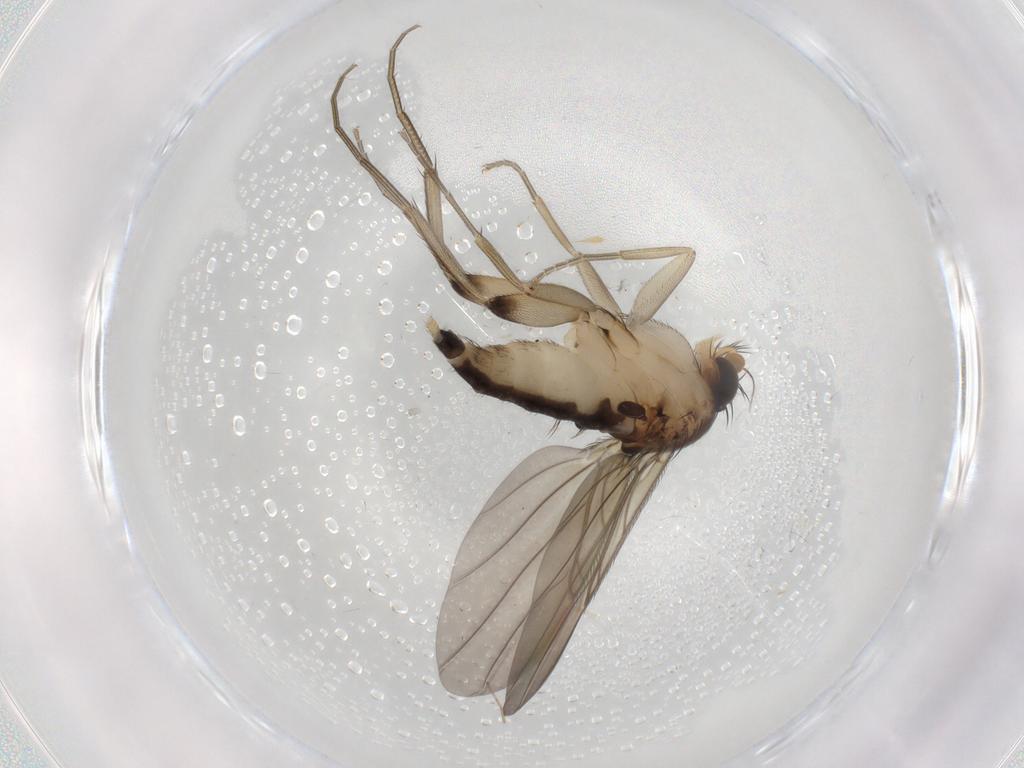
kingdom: Animalia
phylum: Arthropoda
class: Insecta
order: Diptera
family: Phoridae
